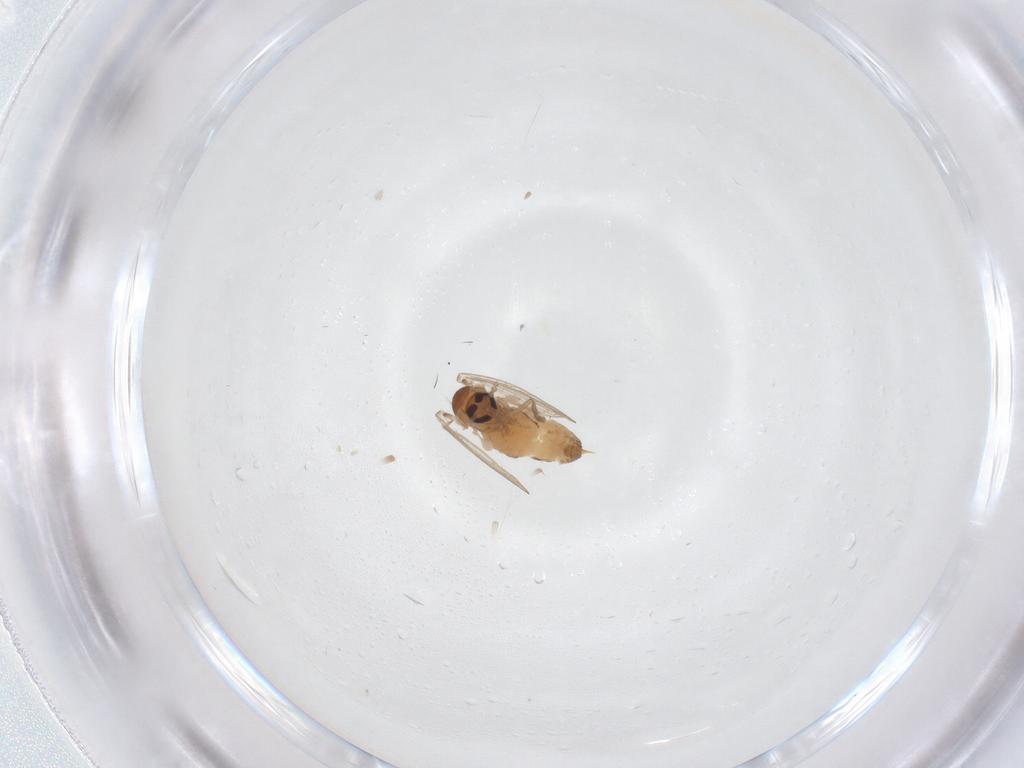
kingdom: Animalia
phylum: Arthropoda
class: Insecta
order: Diptera
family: Psychodidae
